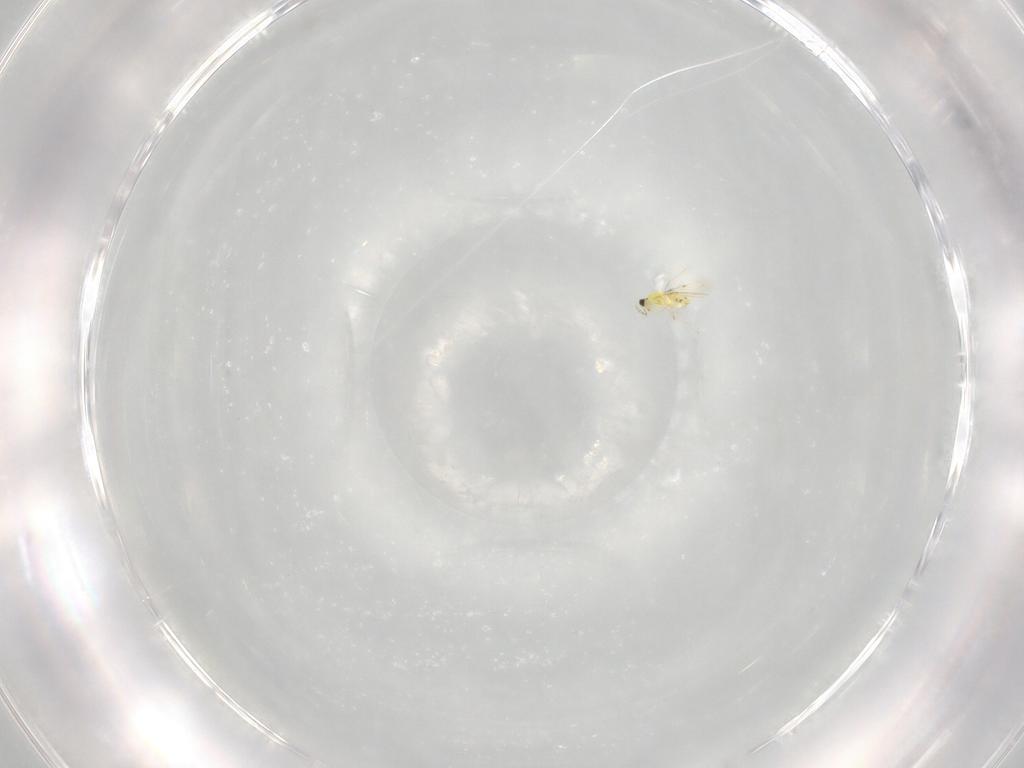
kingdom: Animalia
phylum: Arthropoda
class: Insecta
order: Hymenoptera
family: Trichogrammatidae
